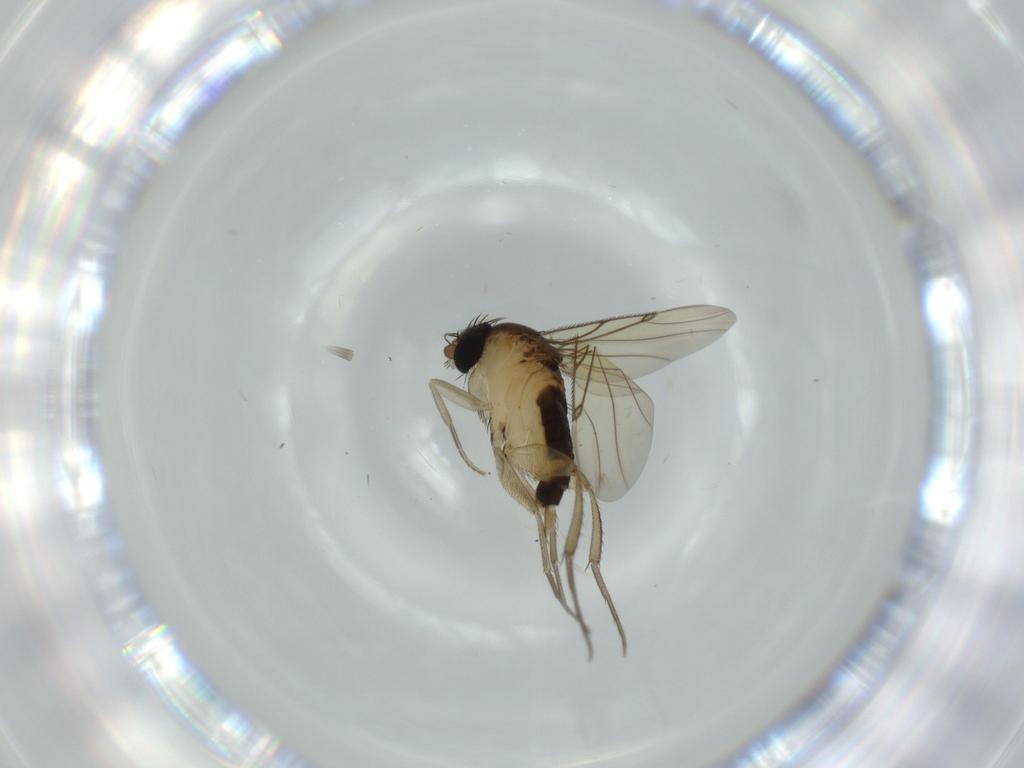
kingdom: Animalia
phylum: Arthropoda
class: Insecta
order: Diptera
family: Phoridae
